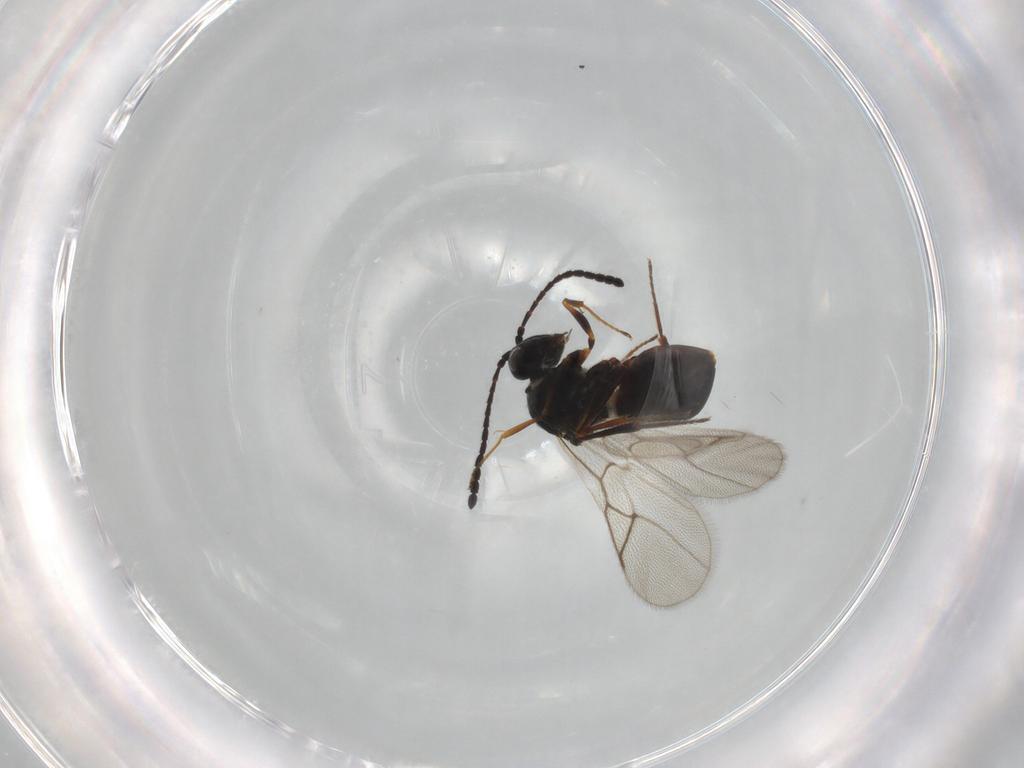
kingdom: Animalia
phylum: Arthropoda
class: Insecta
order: Hymenoptera
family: Figitidae
